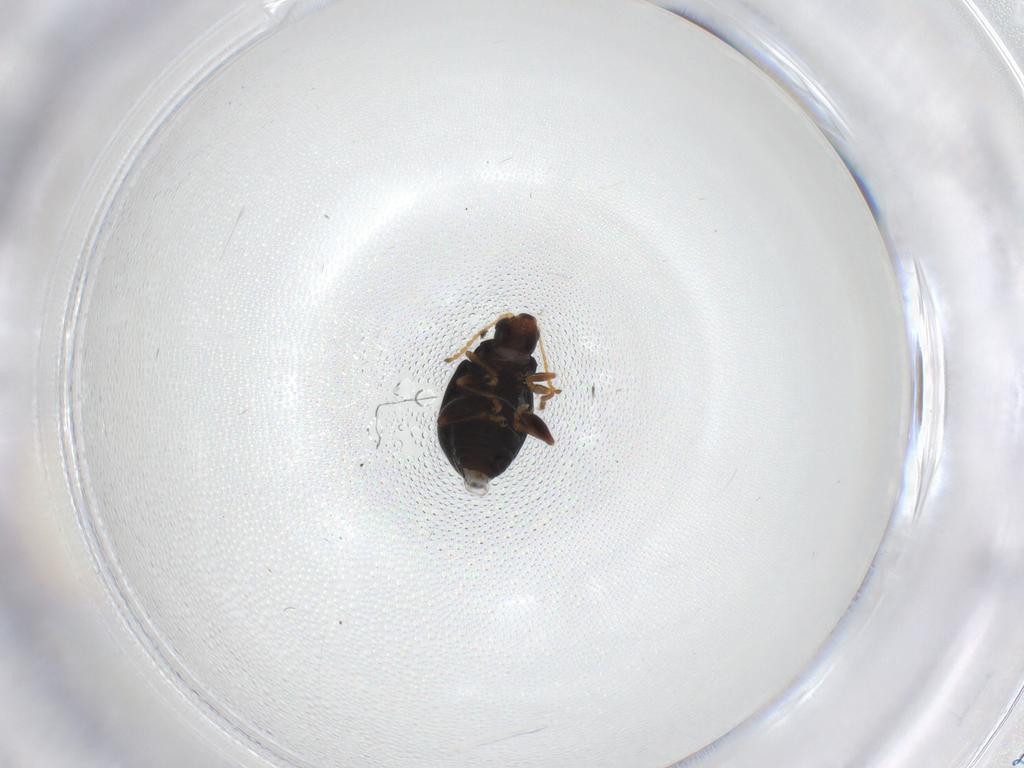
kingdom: Animalia
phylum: Arthropoda
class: Insecta
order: Coleoptera
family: Chrysomelidae
